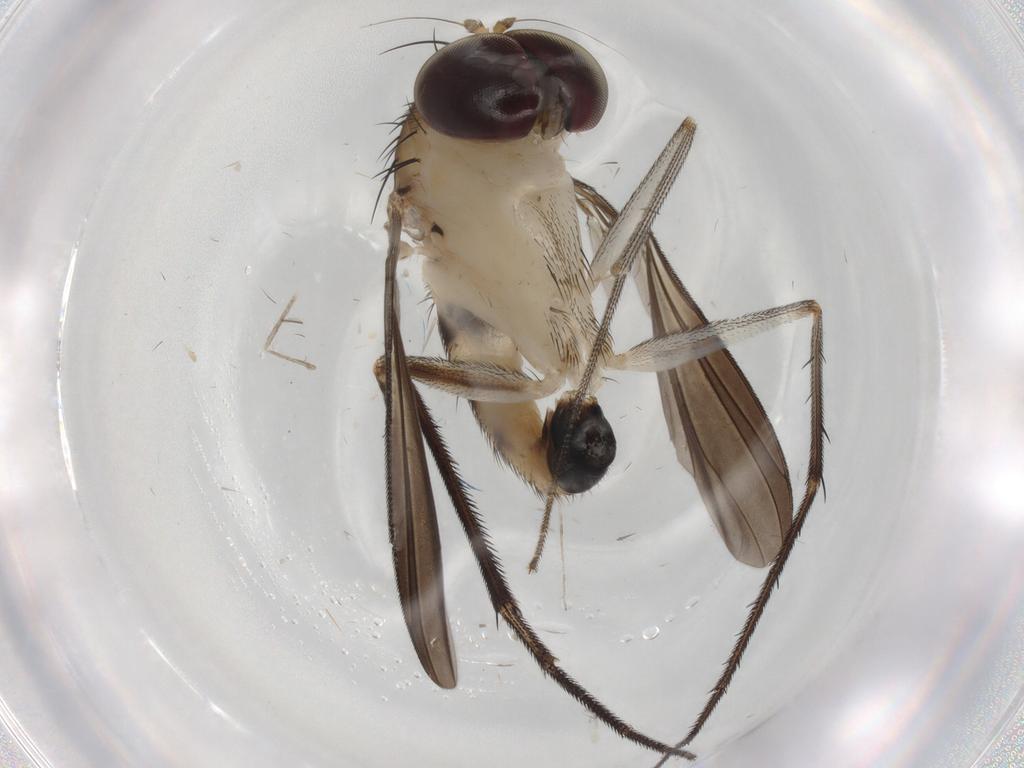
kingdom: Animalia
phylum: Arthropoda
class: Insecta
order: Diptera
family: Dolichopodidae
